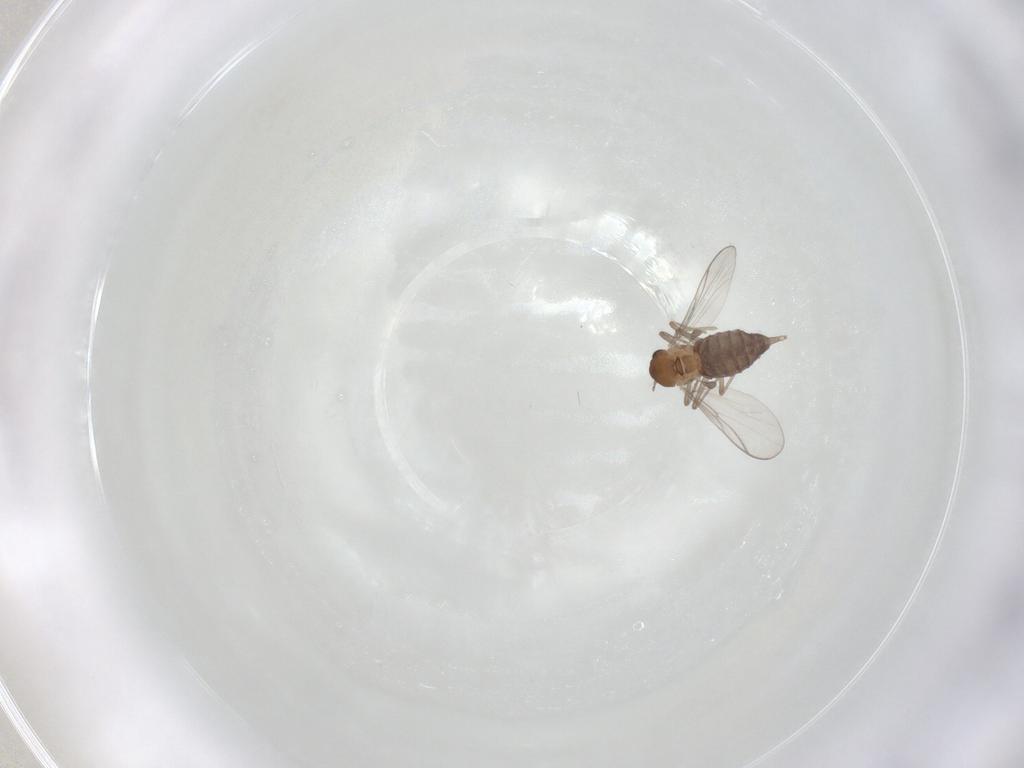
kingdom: Animalia
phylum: Arthropoda
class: Insecta
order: Diptera
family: Chironomidae
